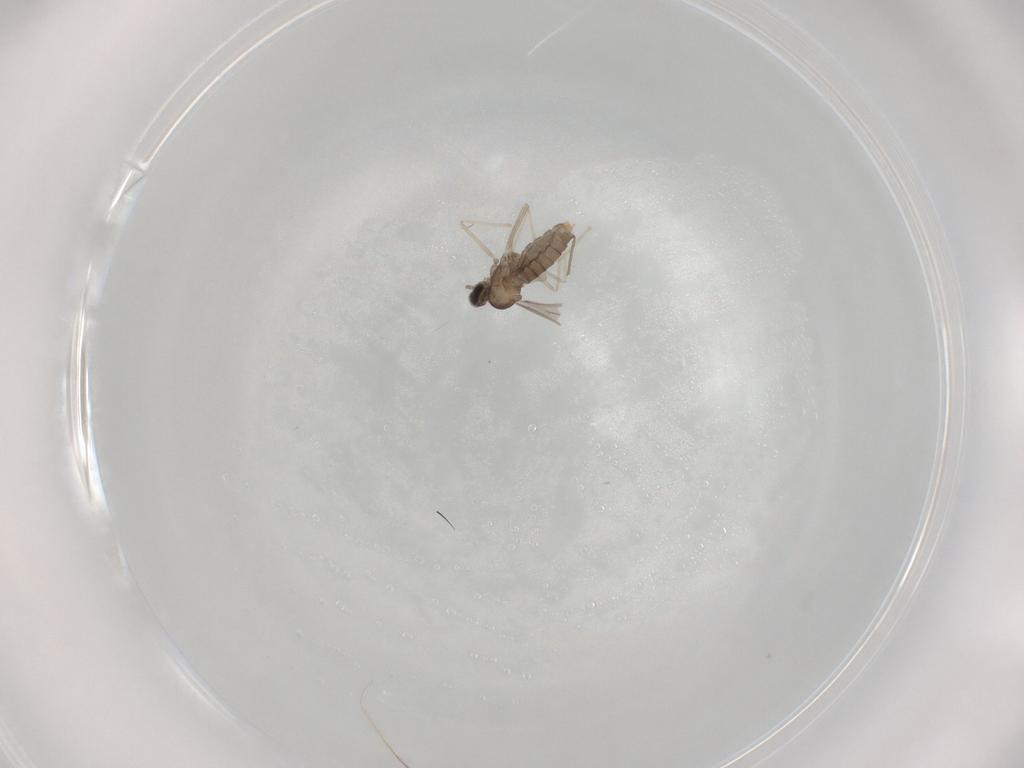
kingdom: Animalia
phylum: Arthropoda
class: Insecta
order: Diptera
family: Cecidomyiidae
